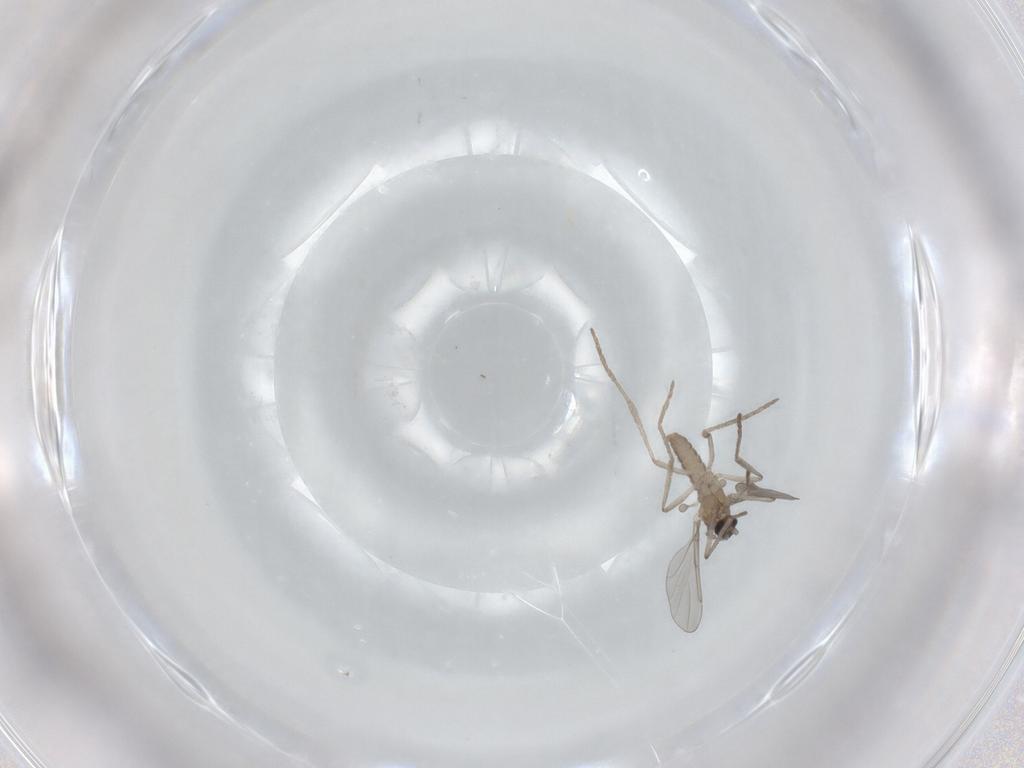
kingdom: Animalia
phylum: Arthropoda
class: Insecta
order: Diptera
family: Cecidomyiidae
